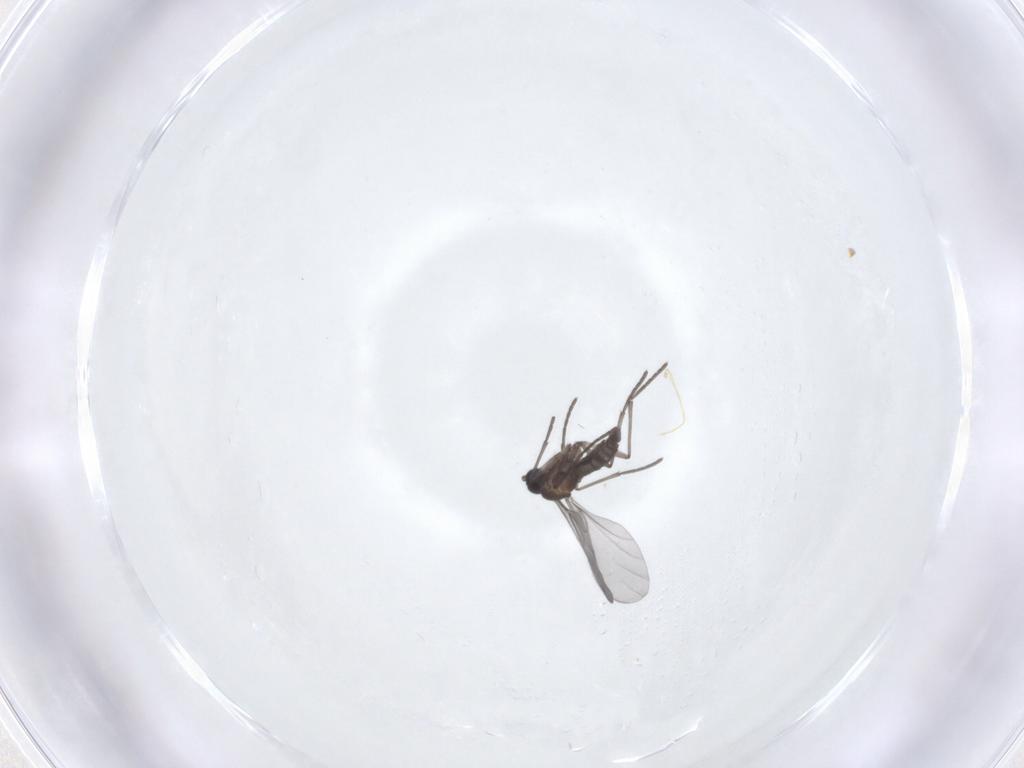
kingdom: Animalia
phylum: Arthropoda
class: Insecta
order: Diptera
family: Sciaridae
